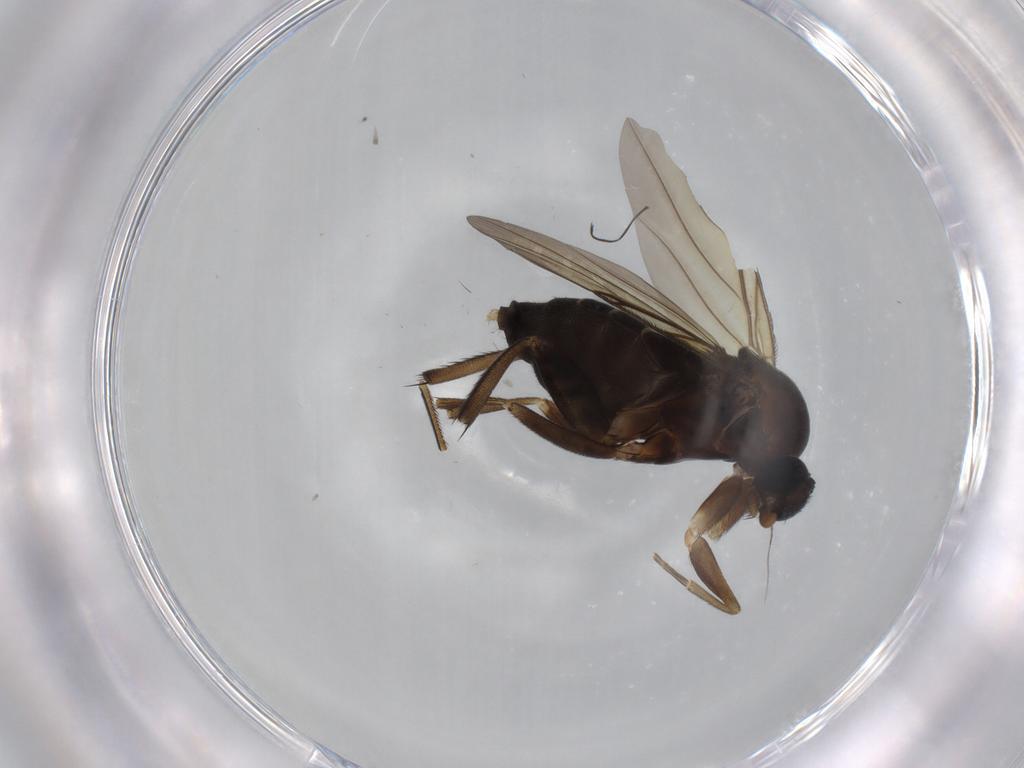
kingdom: Animalia
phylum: Arthropoda
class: Insecta
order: Diptera
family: Phoridae
